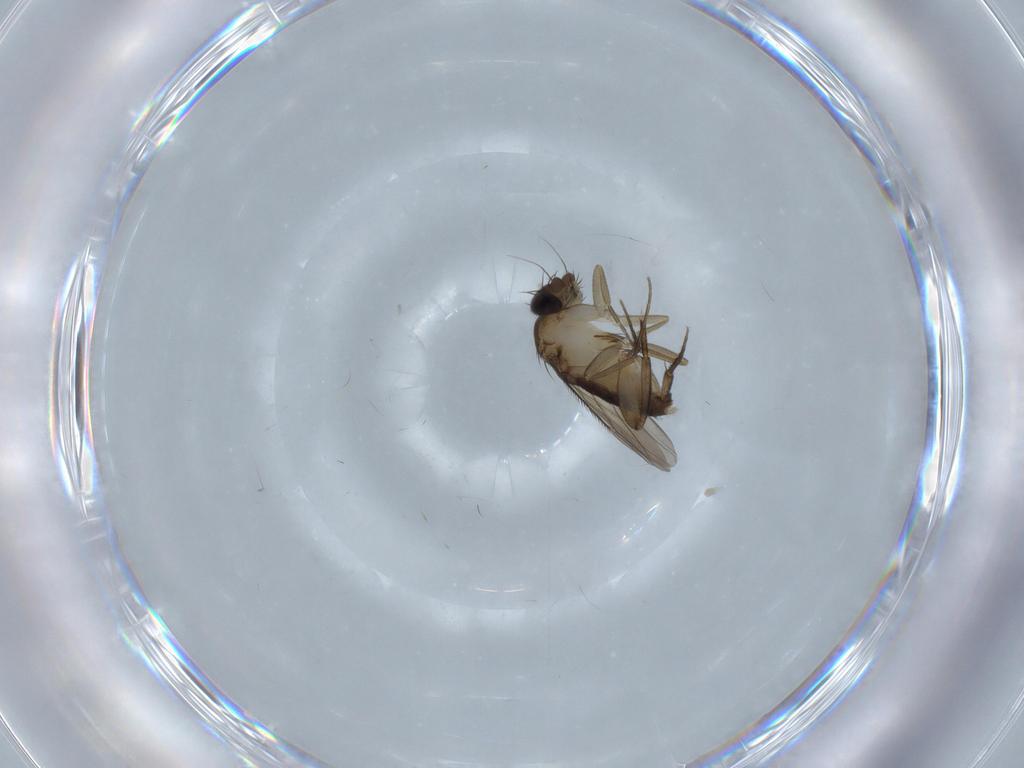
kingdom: Animalia
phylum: Arthropoda
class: Insecta
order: Diptera
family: Phoridae
